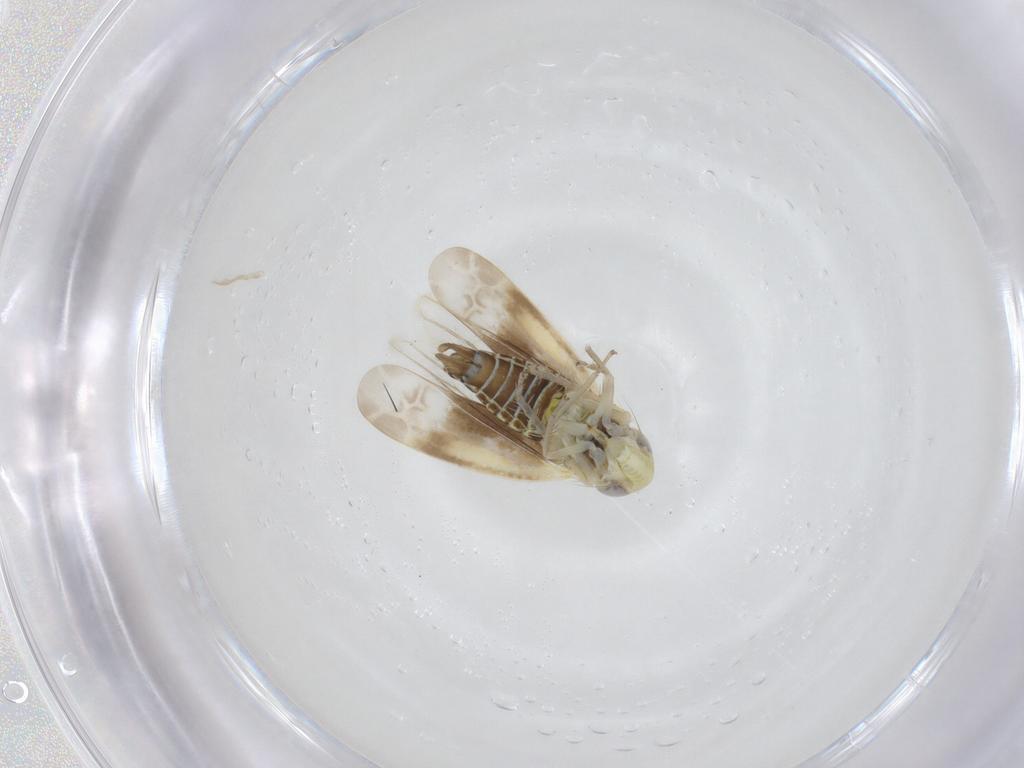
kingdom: Animalia
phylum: Arthropoda
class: Insecta
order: Hemiptera
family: Cicadellidae
